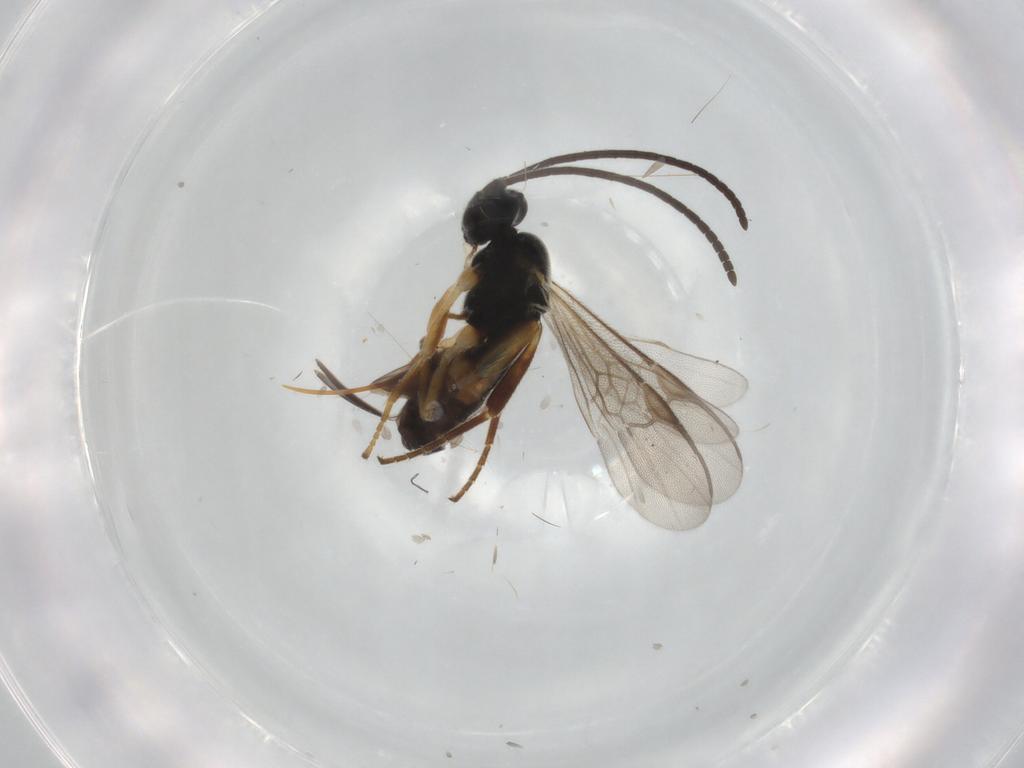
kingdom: Animalia
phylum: Arthropoda
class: Insecta
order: Hymenoptera
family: Braconidae
